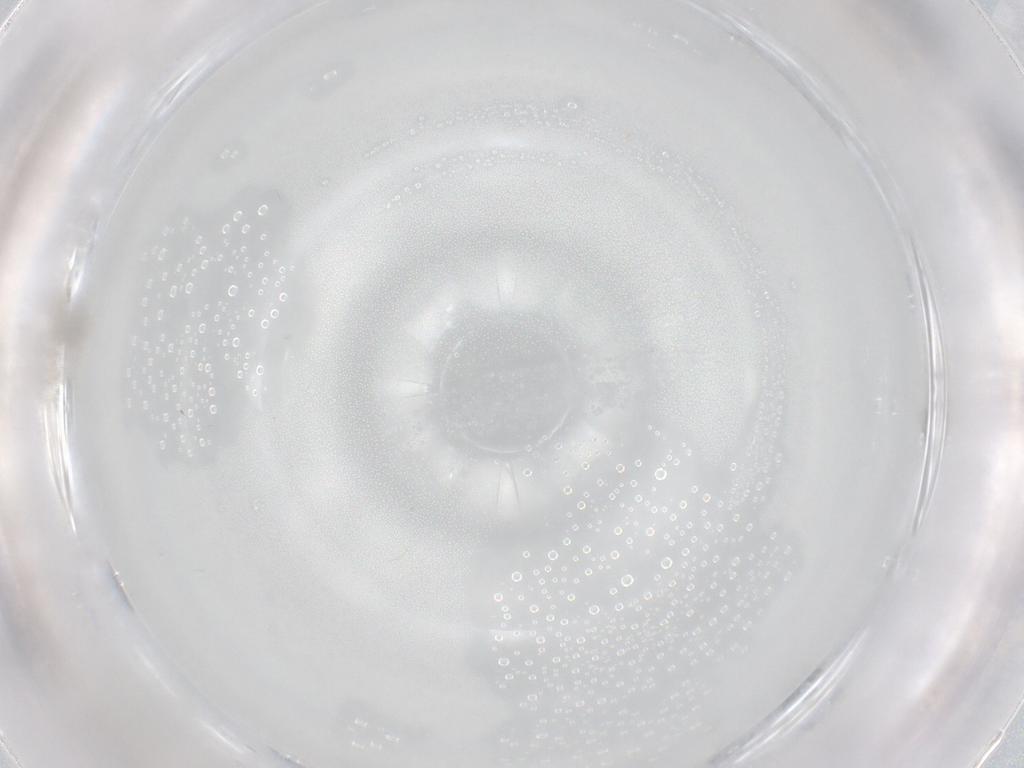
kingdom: Animalia
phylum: Arthropoda
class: Insecta
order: Diptera
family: Cecidomyiidae
